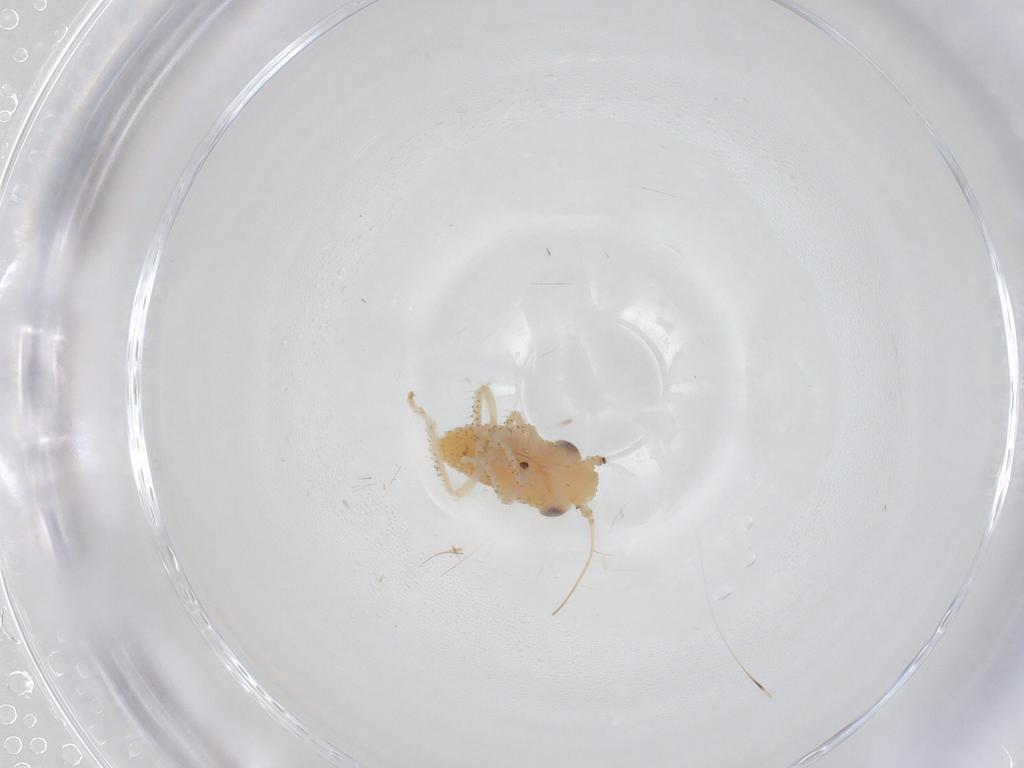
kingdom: Animalia
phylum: Arthropoda
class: Insecta
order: Hemiptera
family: Cicadellidae
